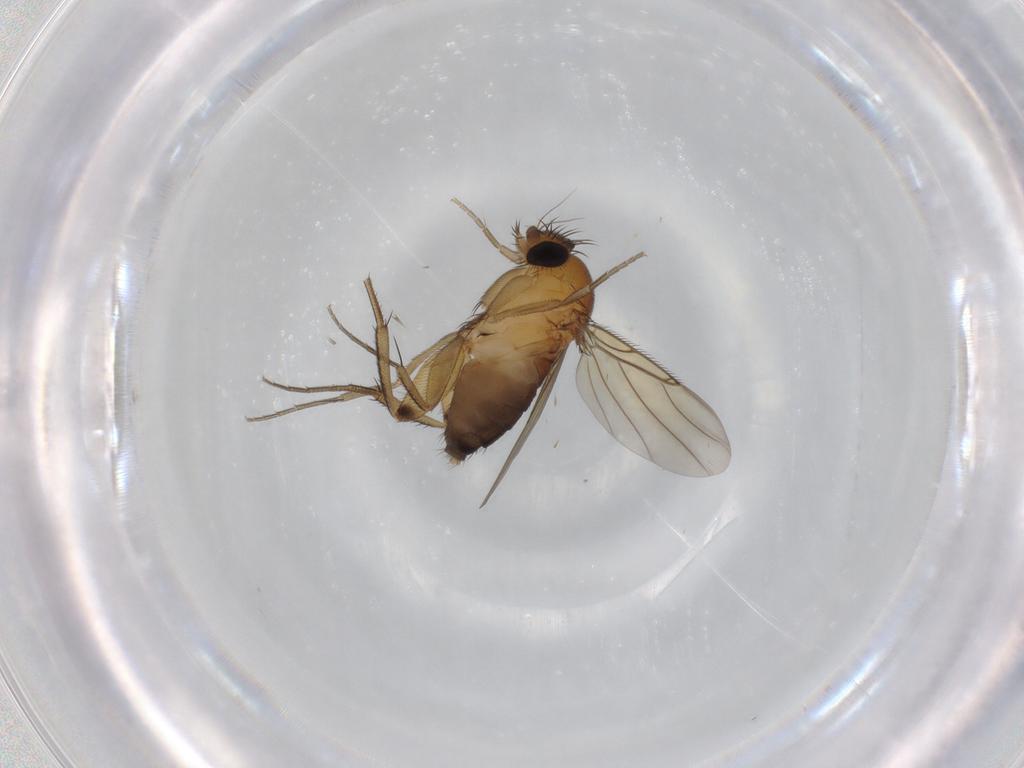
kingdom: Animalia
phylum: Arthropoda
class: Insecta
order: Diptera
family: Phoridae
